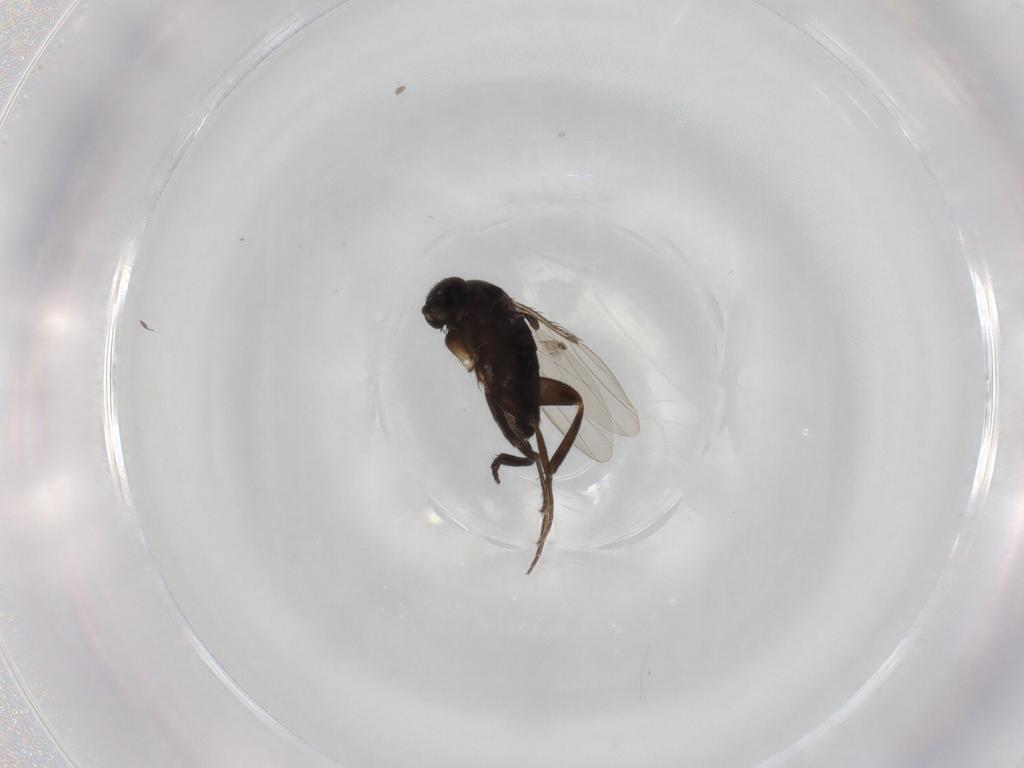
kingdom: Animalia
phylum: Arthropoda
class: Insecta
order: Diptera
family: Phoridae
